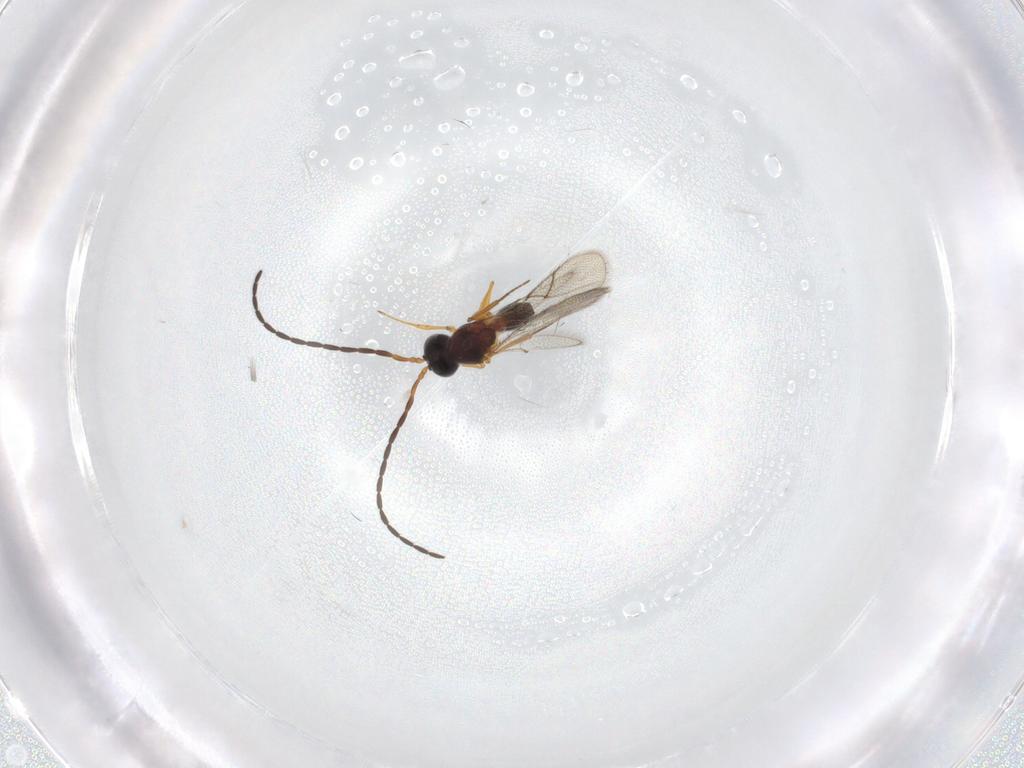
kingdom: Animalia
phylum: Arthropoda
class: Insecta
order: Hymenoptera
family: Figitidae
